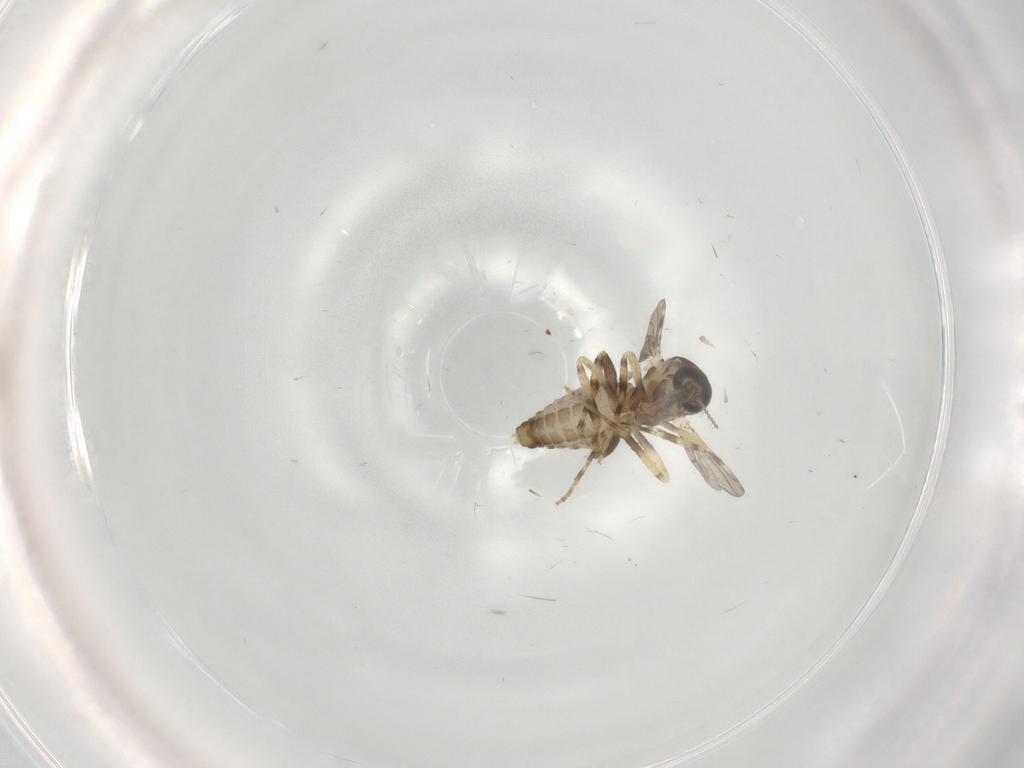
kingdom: Animalia
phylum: Arthropoda
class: Insecta
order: Diptera
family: Ceratopogonidae
